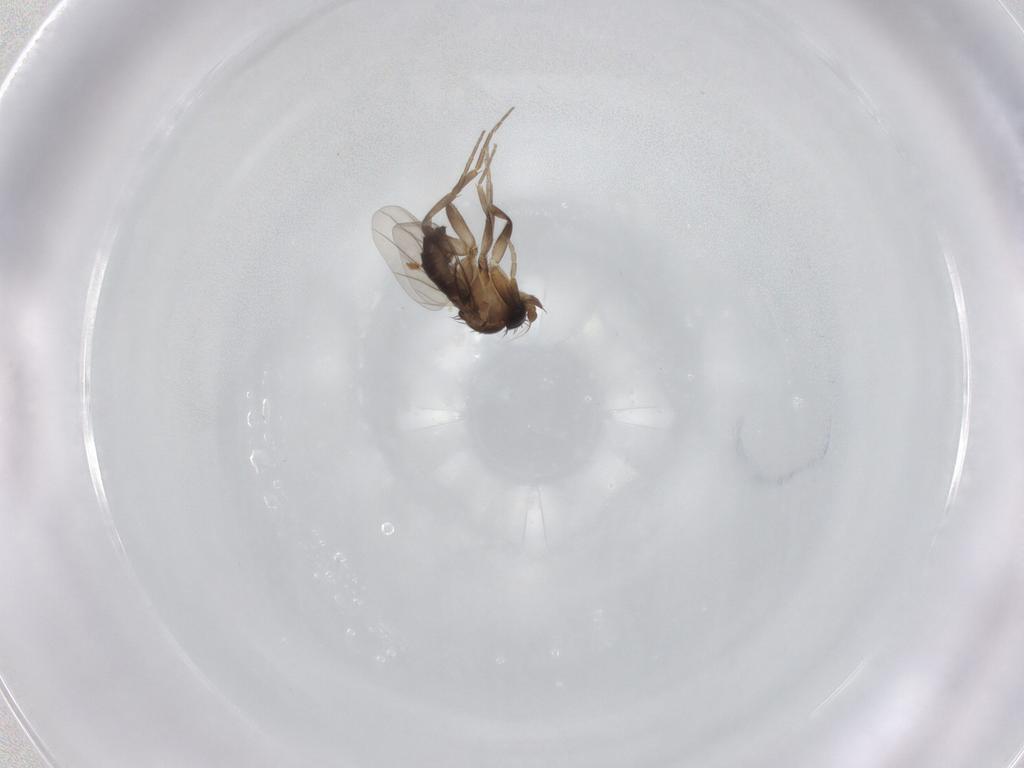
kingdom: Animalia
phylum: Arthropoda
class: Insecta
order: Diptera
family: Phoridae
